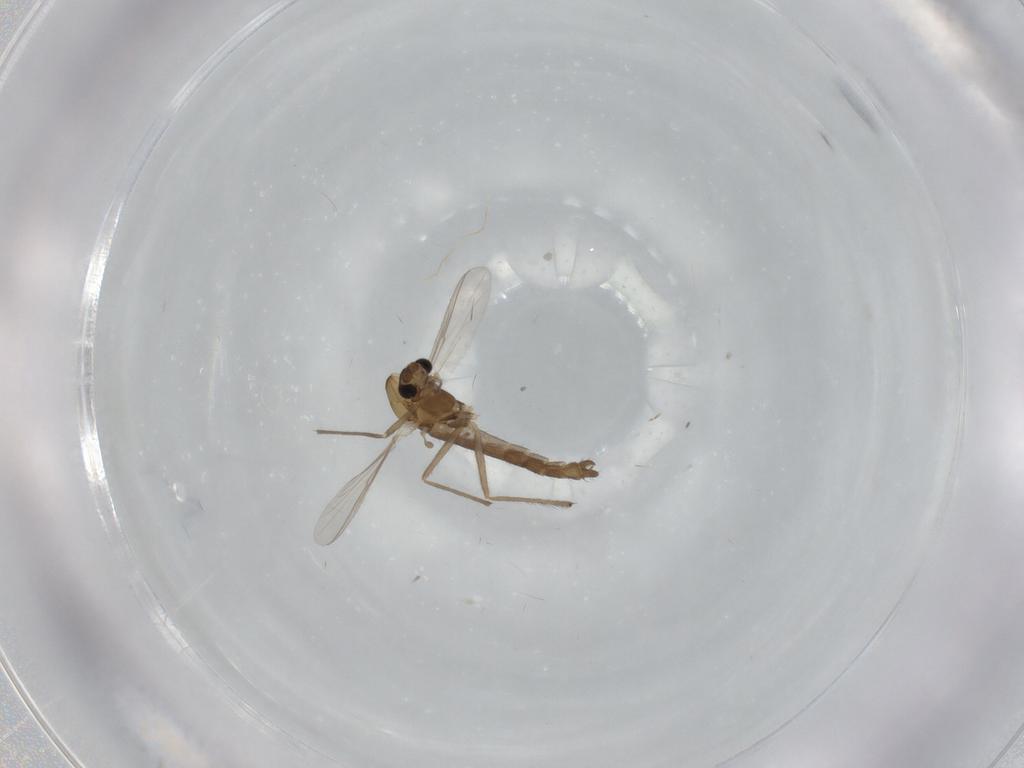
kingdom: Animalia
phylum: Arthropoda
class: Insecta
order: Diptera
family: Chironomidae
